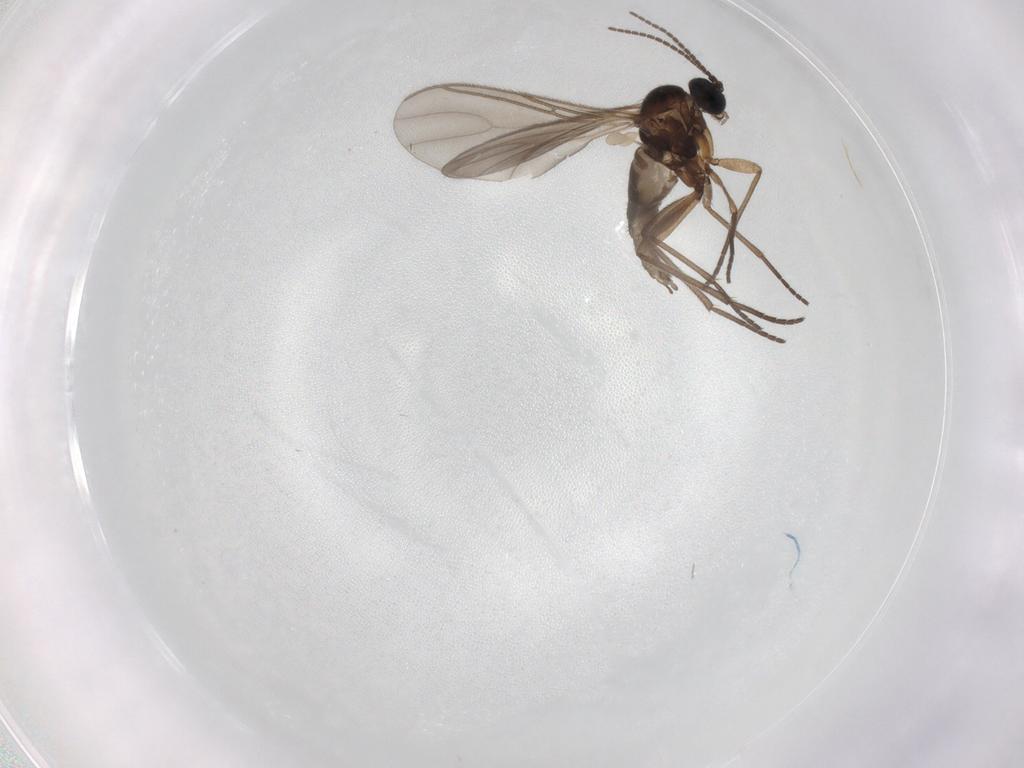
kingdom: Animalia
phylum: Arthropoda
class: Insecta
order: Diptera
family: Sciaridae
